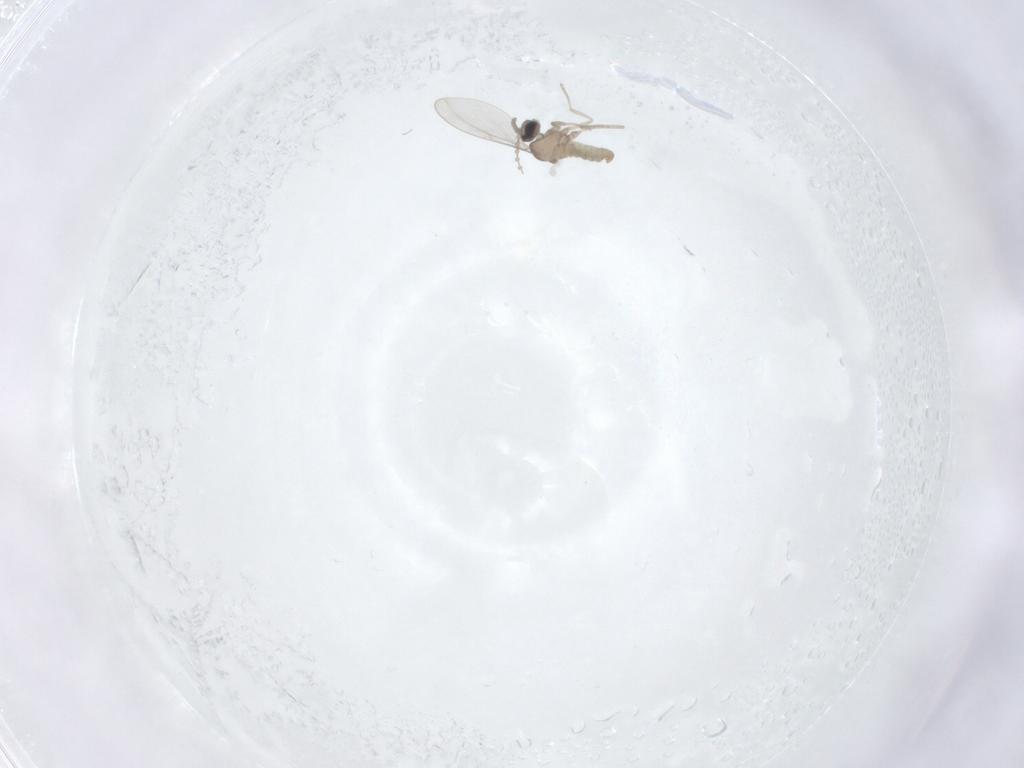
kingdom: Animalia
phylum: Arthropoda
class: Insecta
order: Diptera
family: Cecidomyiidae
